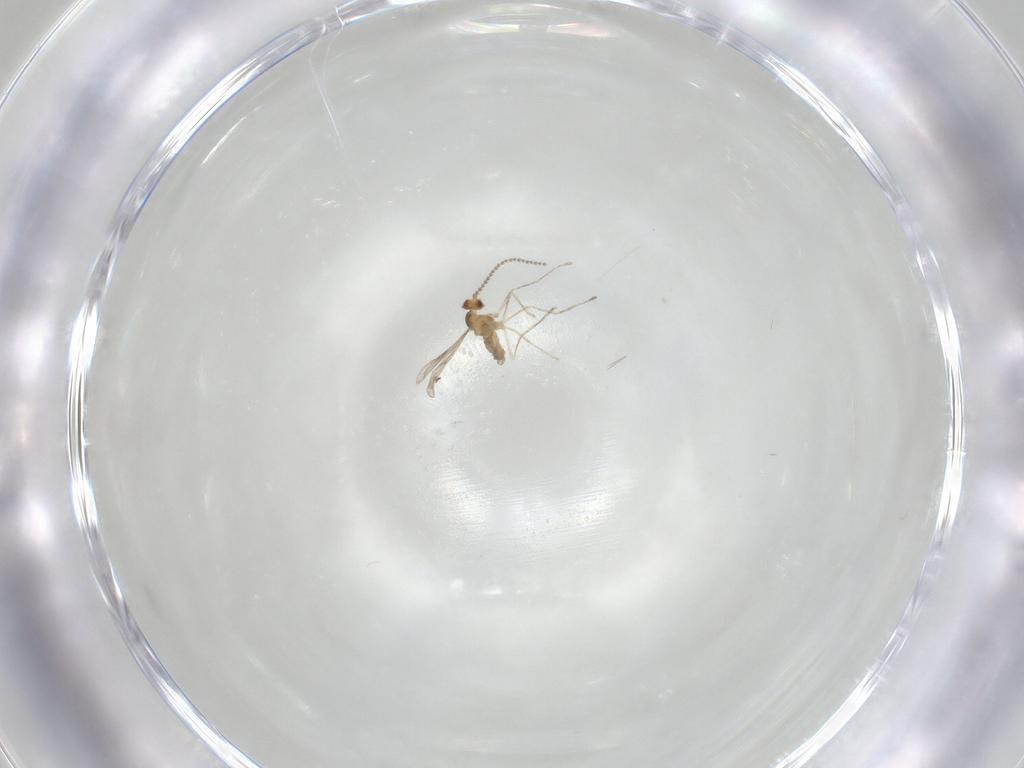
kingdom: Animalia
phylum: Arthropoda
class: Insecta
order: Diptera
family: Cecidomyiidae
